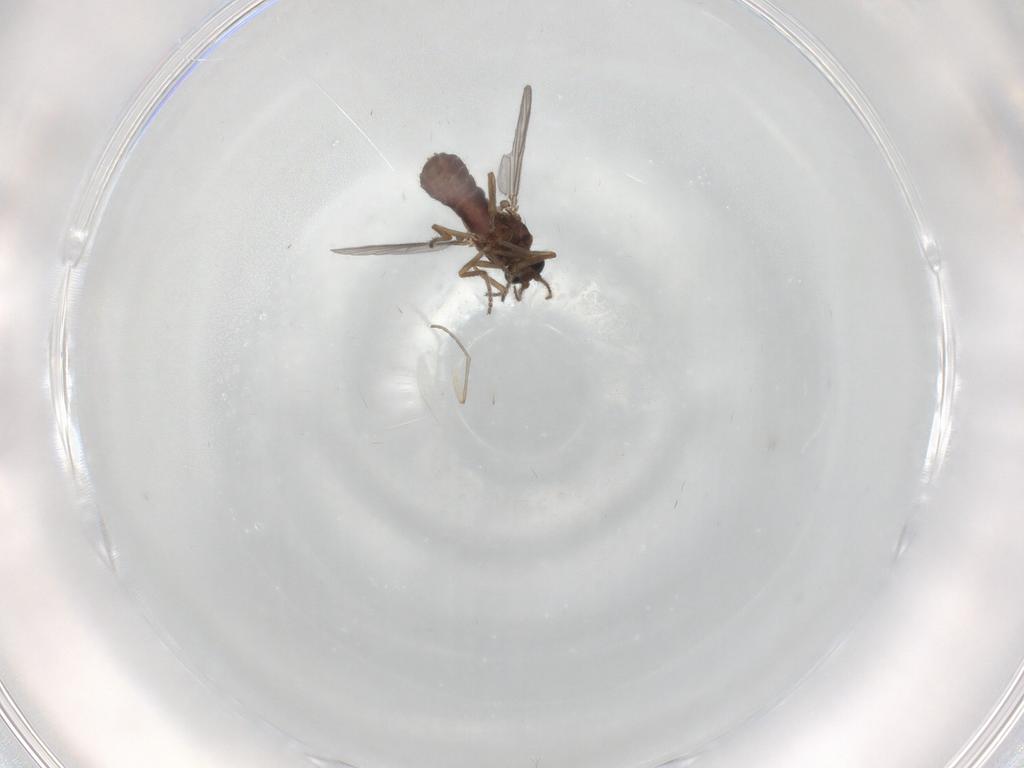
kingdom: Animalia
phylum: Arthropoda
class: Insecta
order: Diptera
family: Ceratopogonidae
